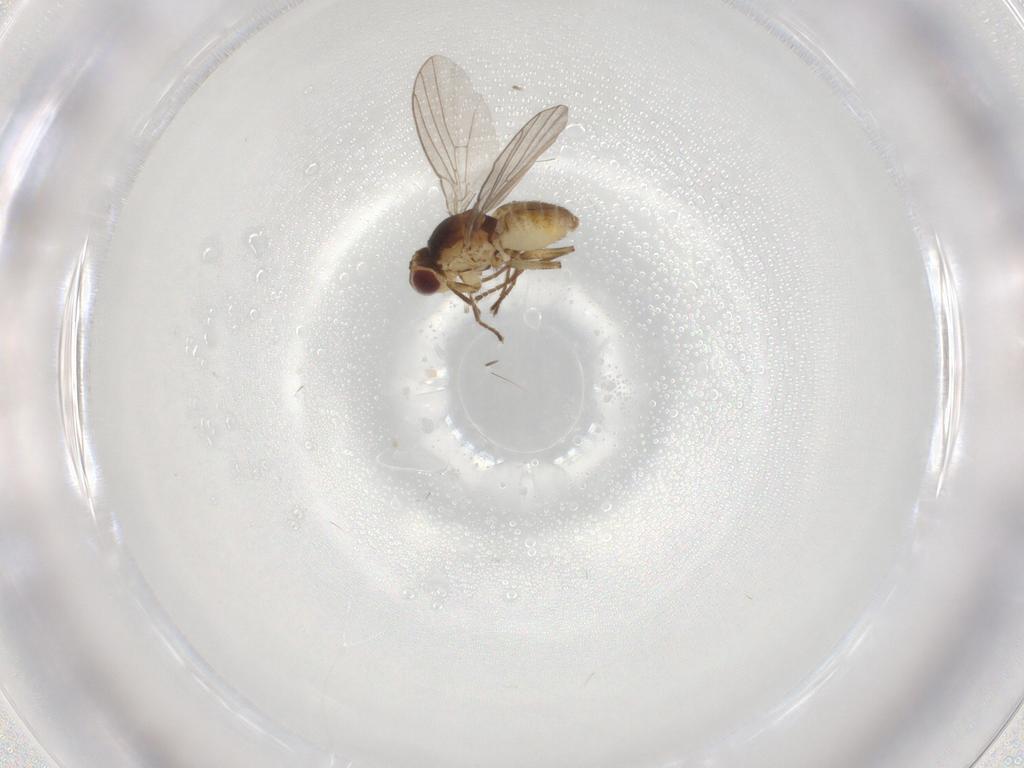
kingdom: Animalia
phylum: Arthropoda
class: Insecta
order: Diptera
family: Agromyzidae
